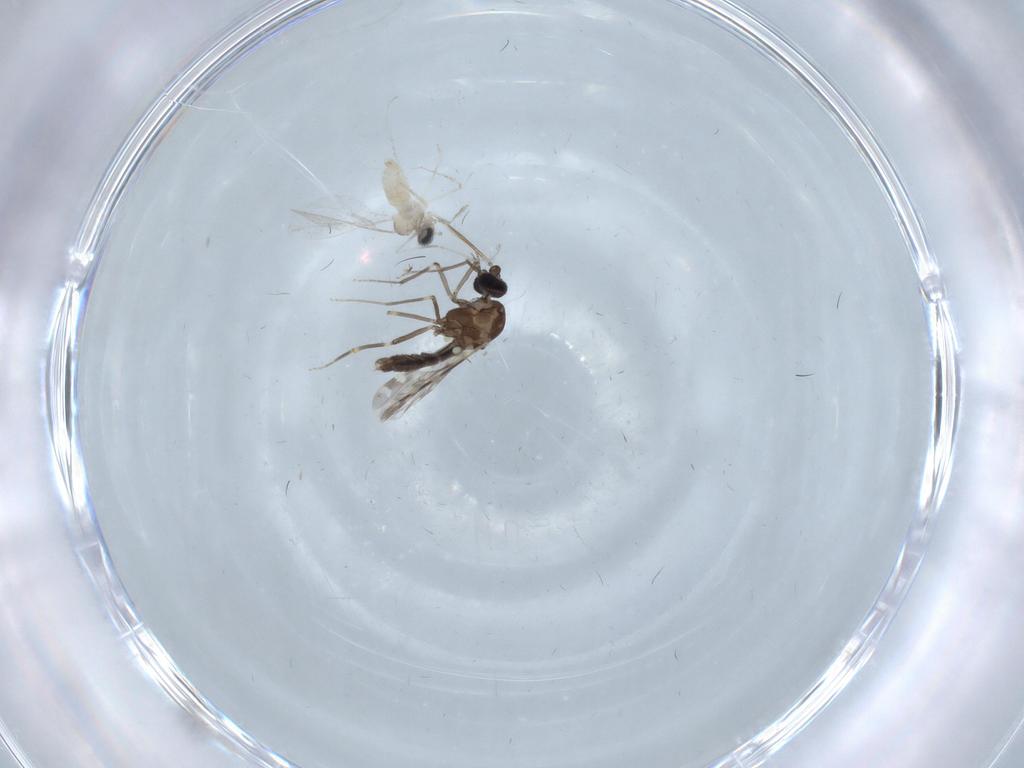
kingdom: Animalia
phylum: Arthropoda
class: Insecta
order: Diptera
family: Ceratopogonidae
